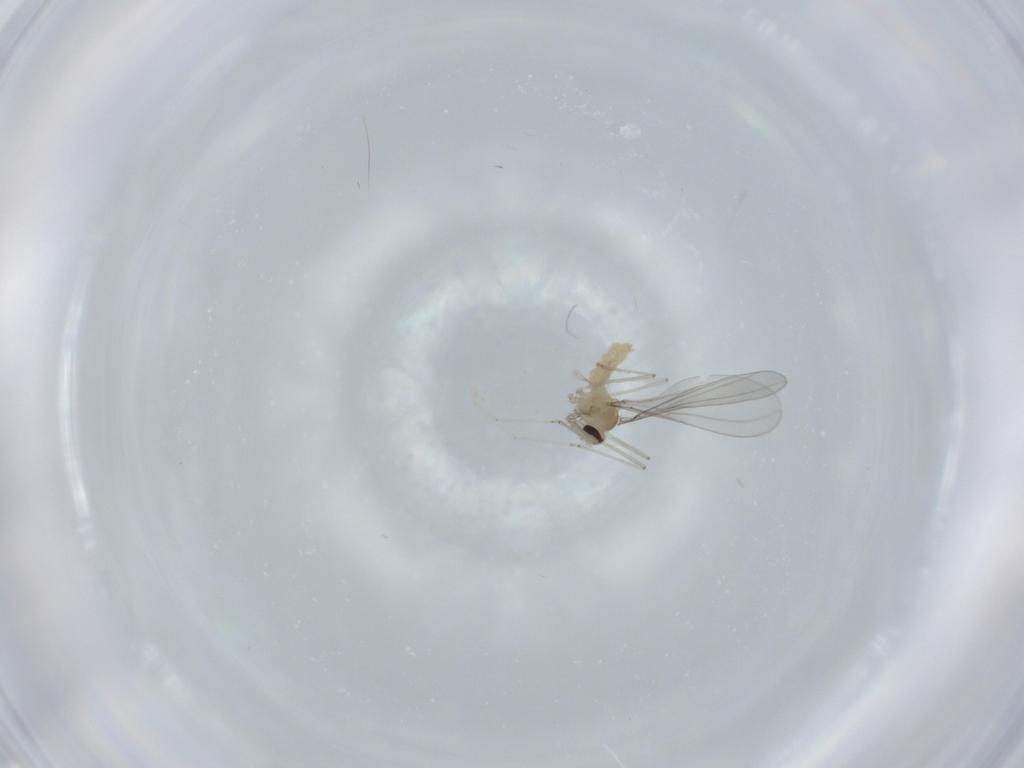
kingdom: Animalia
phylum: Arthropoda
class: Insecta
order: Diptera
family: Cecidomyiidae
